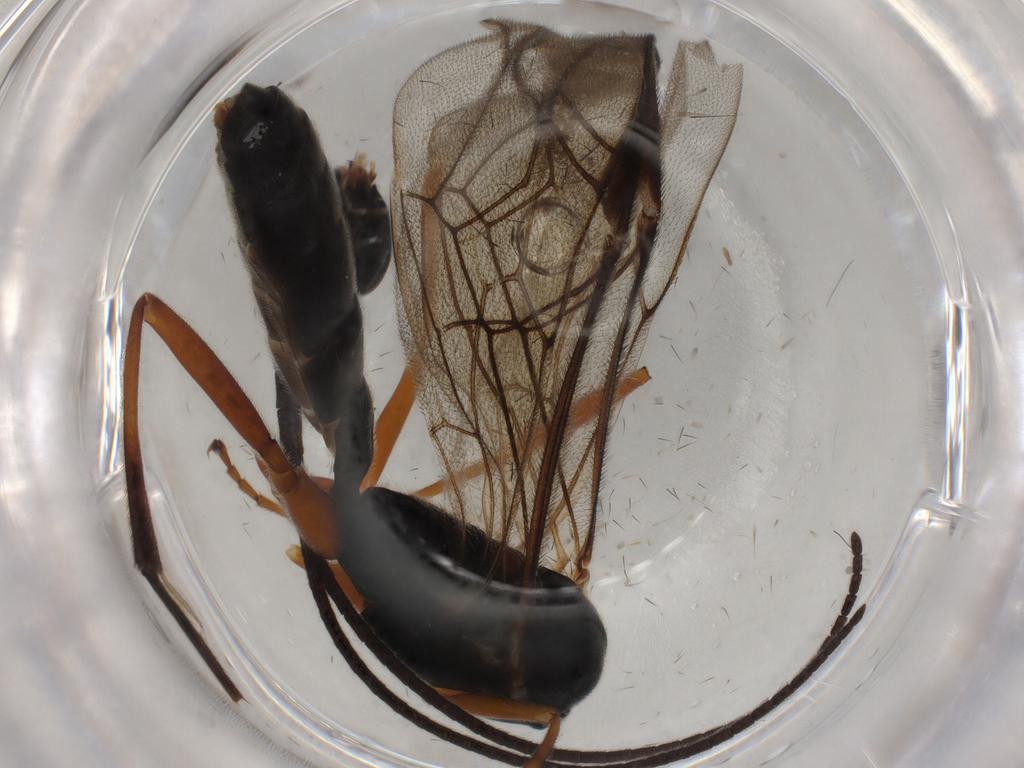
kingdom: Animalia
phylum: Arthropoda
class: Insecta
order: Hymenoptera
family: Ichneumonidae
